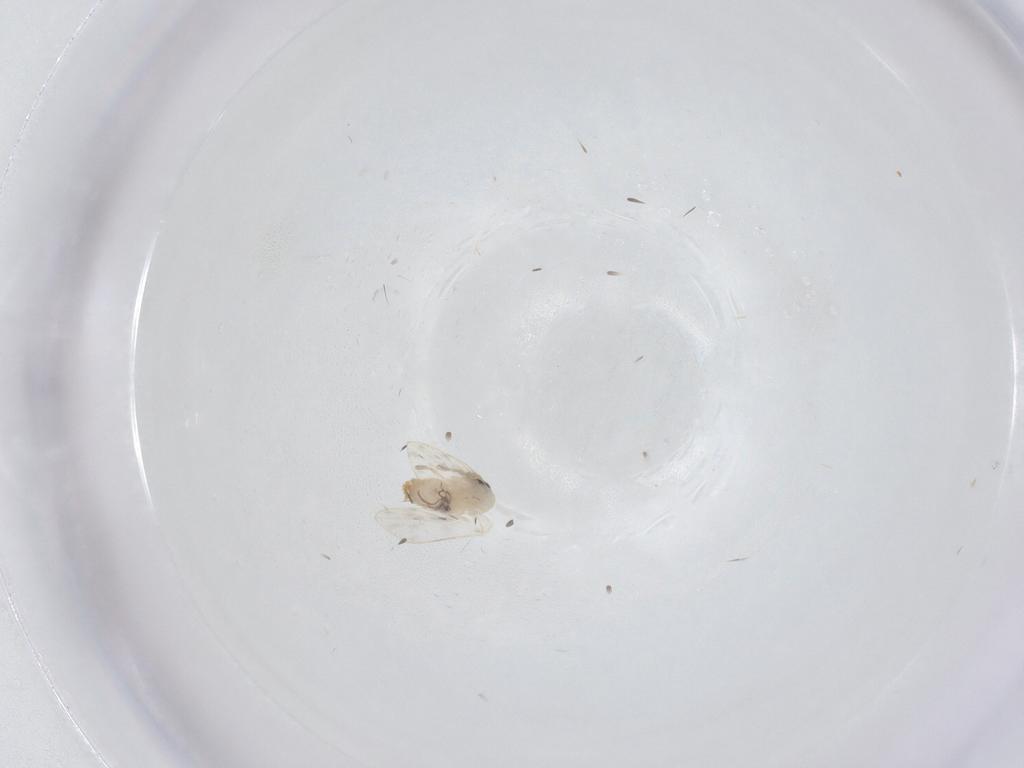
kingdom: Animalia
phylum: Arthropoda
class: Insecta
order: Diptera
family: Psychodidae
